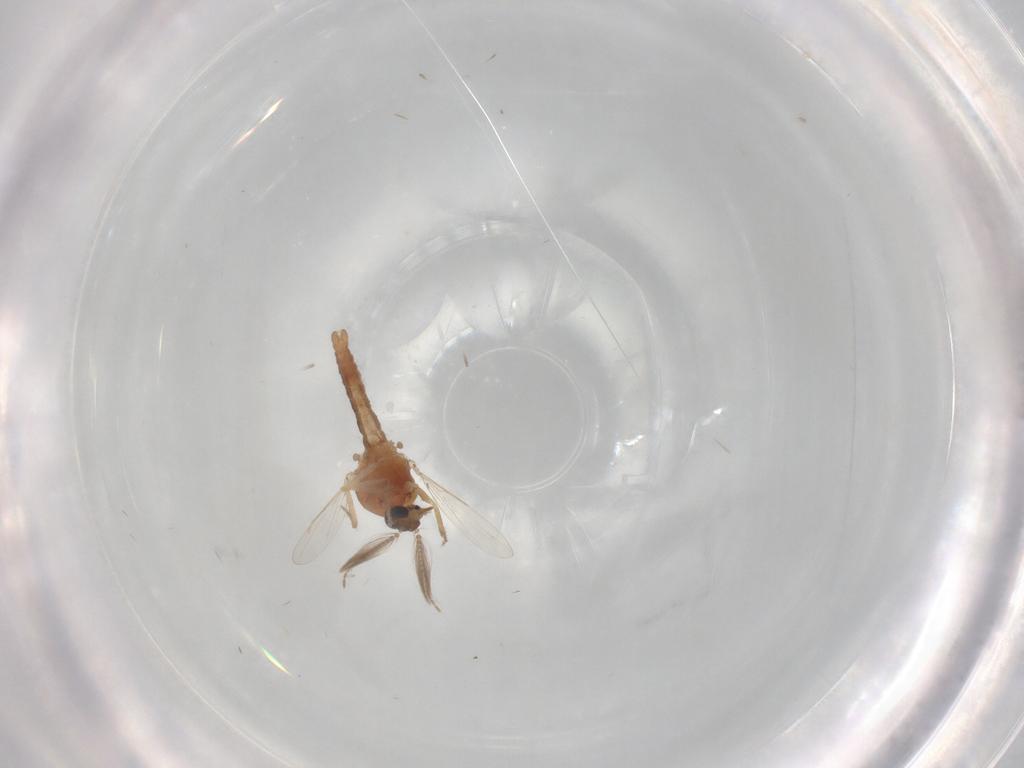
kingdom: Animalia
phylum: Arthropoda
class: Insecta
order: Diptera
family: Ceratopogonidae
